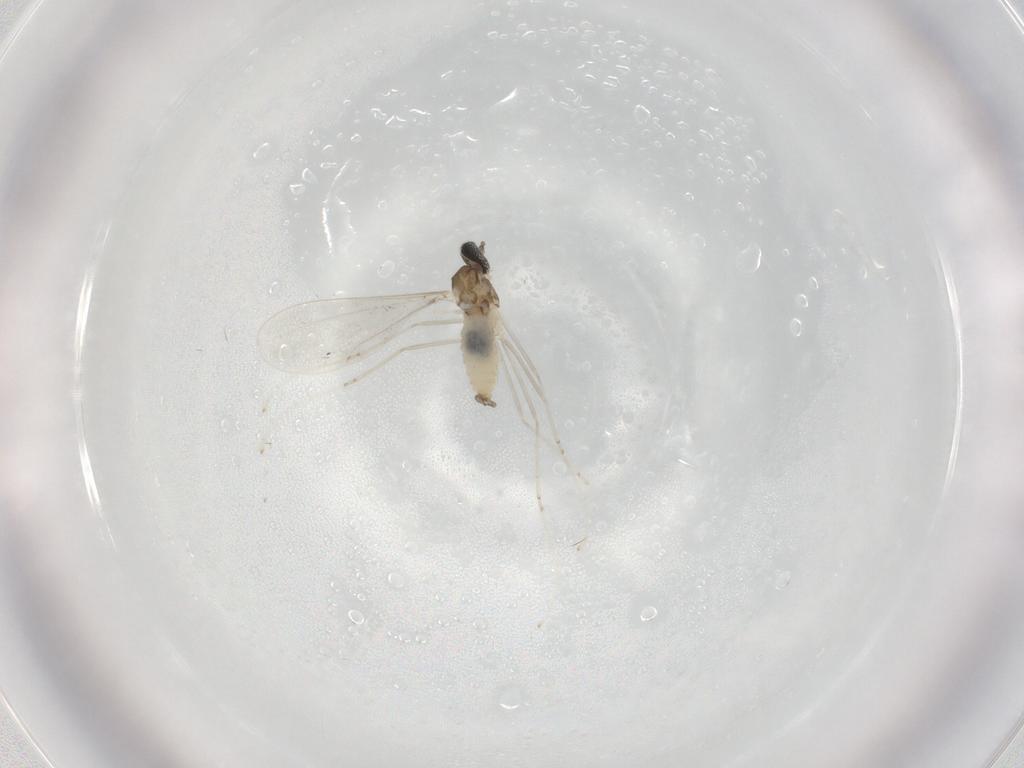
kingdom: Animalia
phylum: Arthropoda
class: Insecta
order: Diptera
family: Cecidomyiidae
